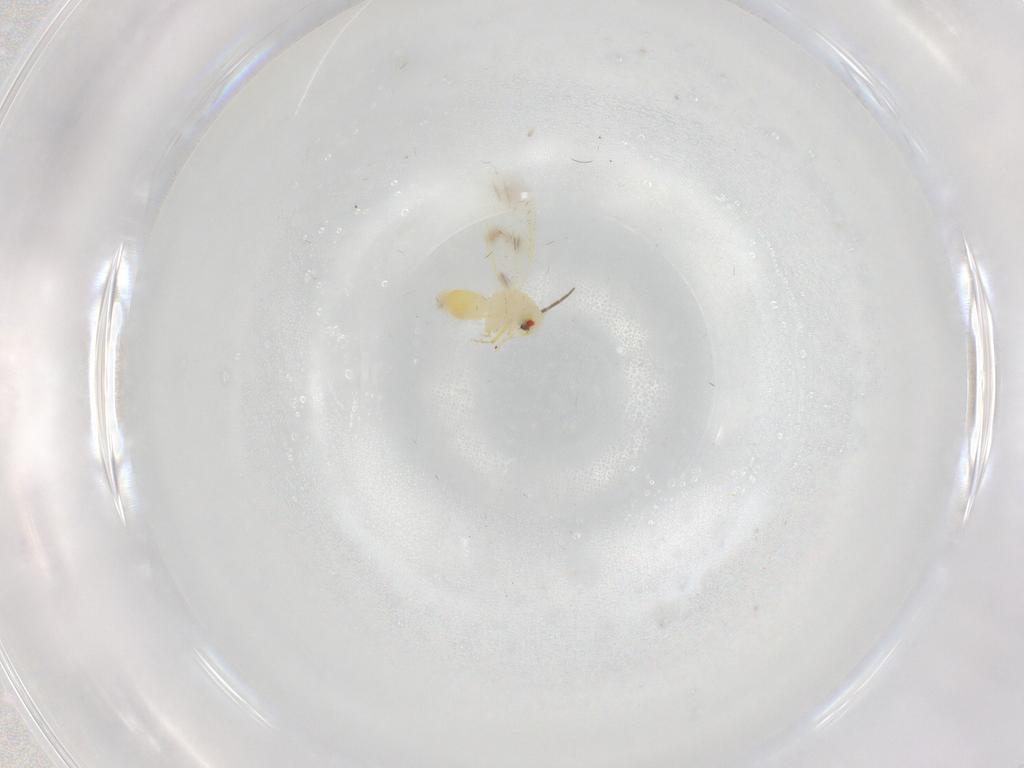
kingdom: Animalia
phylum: Arthropoda
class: Insecta
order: Hemiptera
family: Aleyrodidae
